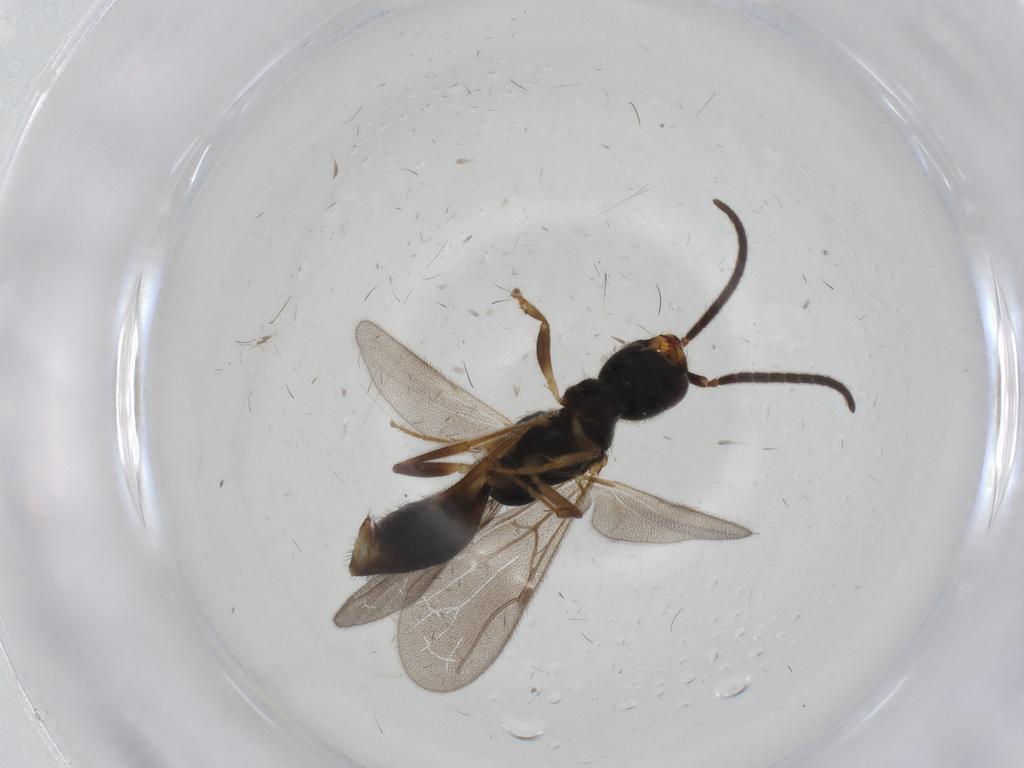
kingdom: Animalia
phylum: Arthropoda
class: Insecta
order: Hymenoptera
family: Bethylidae
